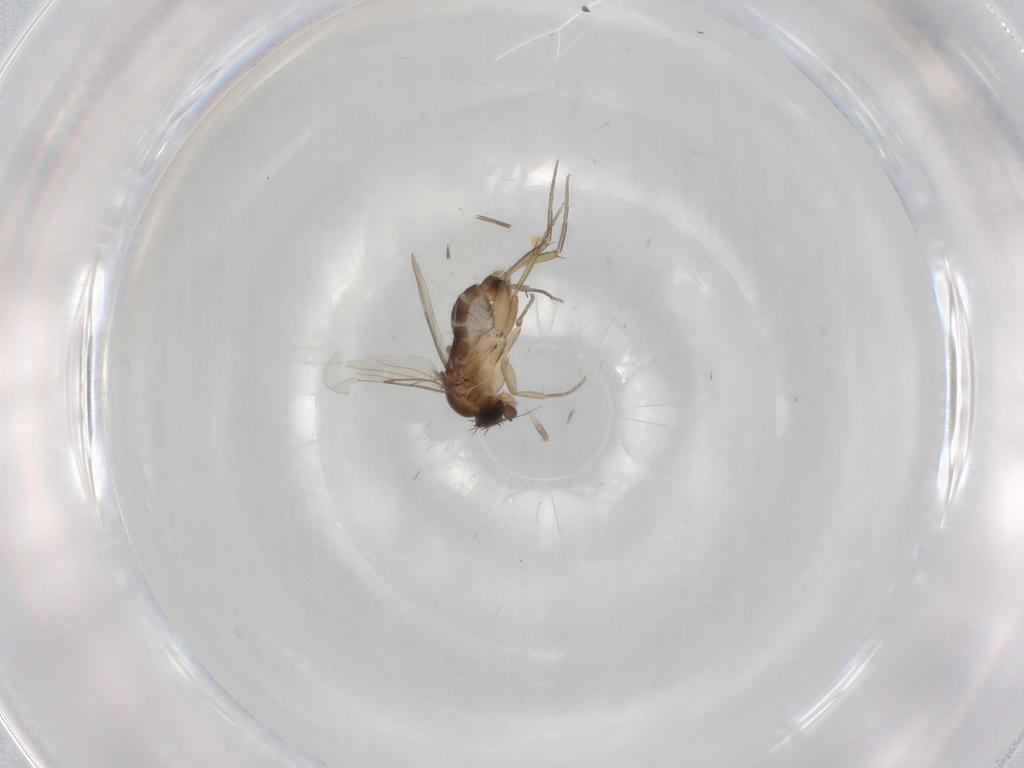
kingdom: Animalia
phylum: Arthropoda
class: Insecta
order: Diptera
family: Phoridae
